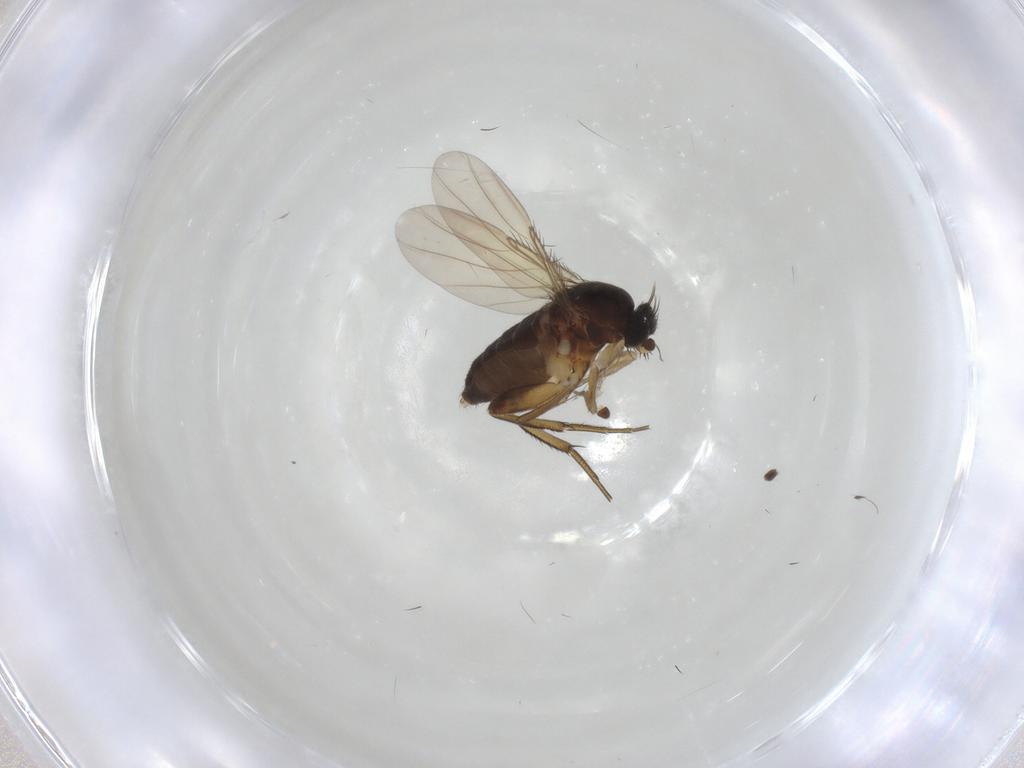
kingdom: Animalia
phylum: Arthropoda
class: Insecta
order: Diptera
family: Phoridae
